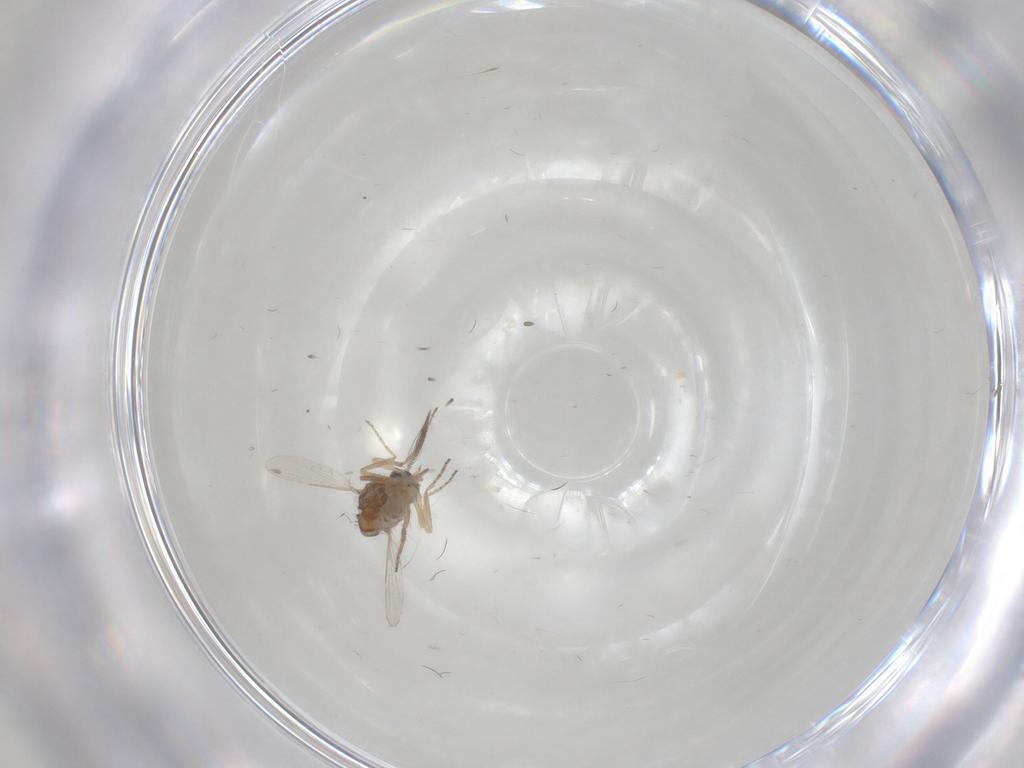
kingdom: Animalia
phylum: Arthropoda
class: Insecta
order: Diptera
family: Ceratopogonidae
